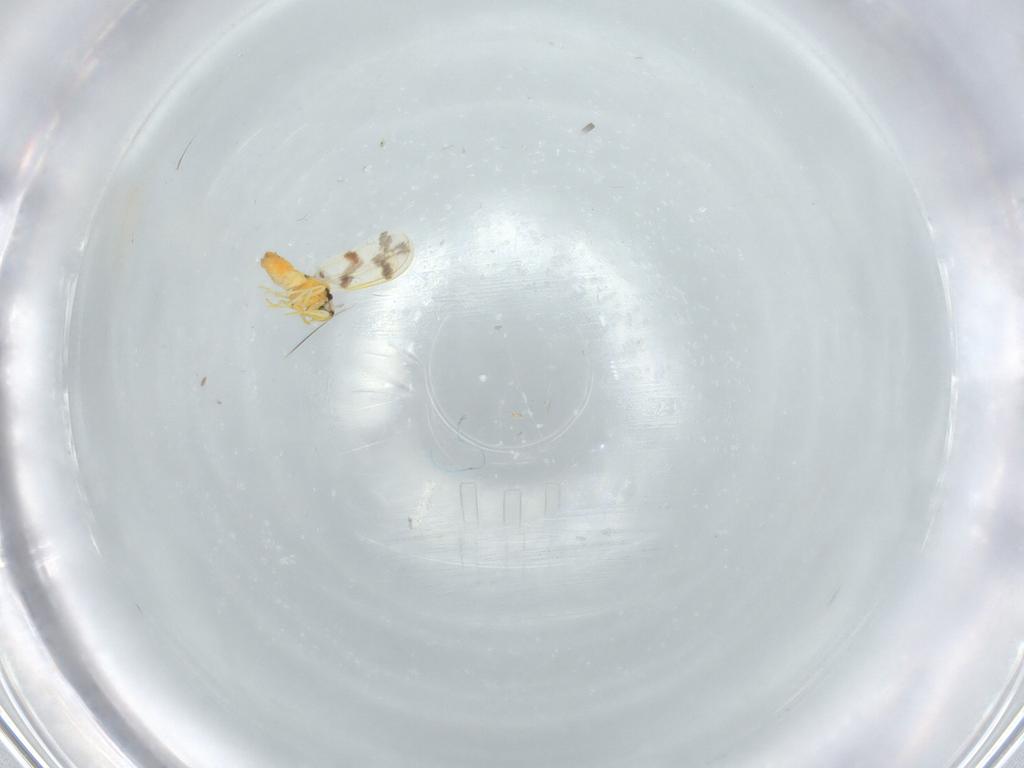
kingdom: Animalia
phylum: Arthropoda
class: Insecta
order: Hemiptera
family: Aleyrodidae
